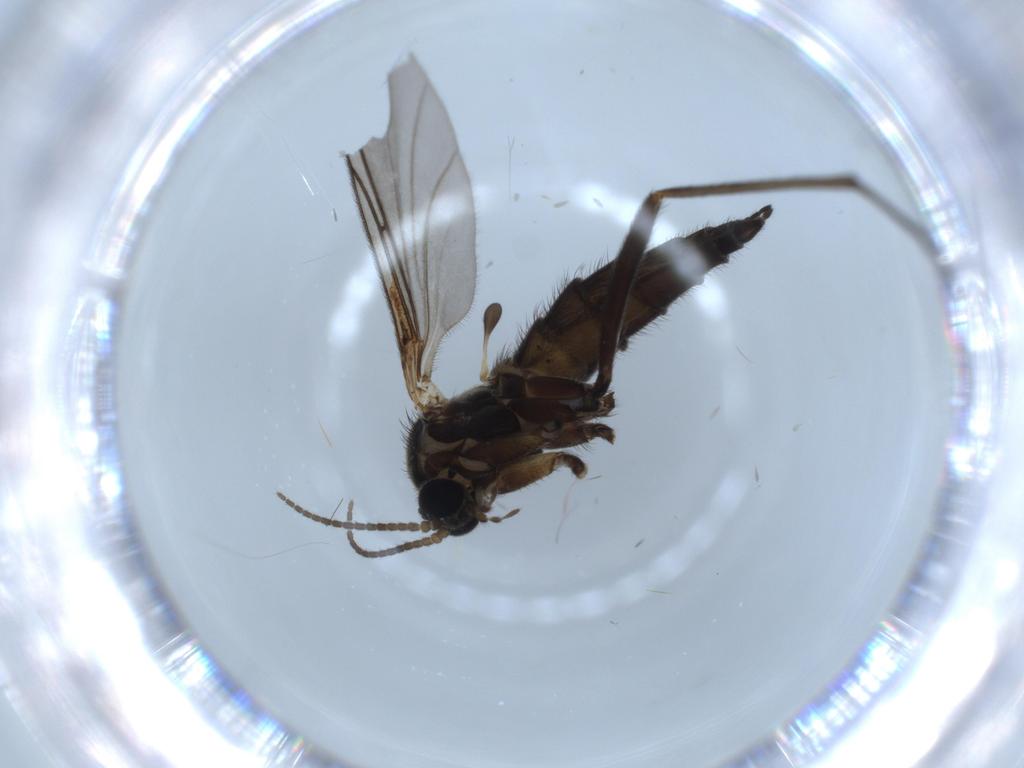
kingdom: Animalia
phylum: Arthropoda
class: Insecta
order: Diptera
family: Sciaridae
